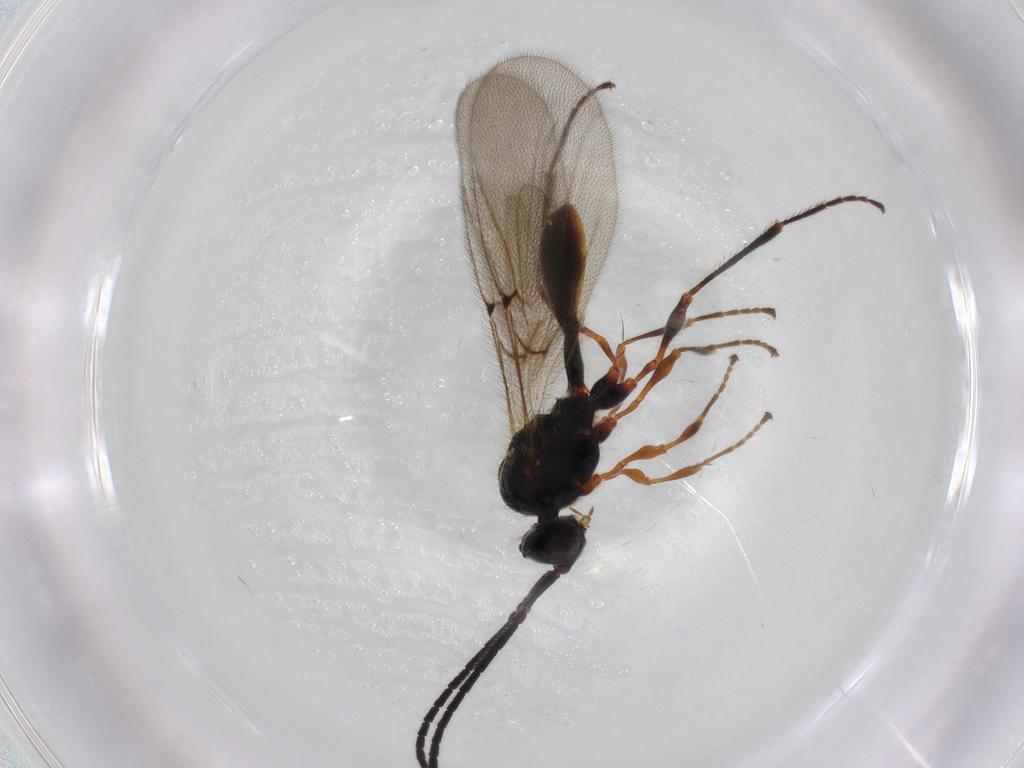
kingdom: Animalia
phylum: Arthropoda
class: Insecta
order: Hymenoptera
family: Diapriidae
